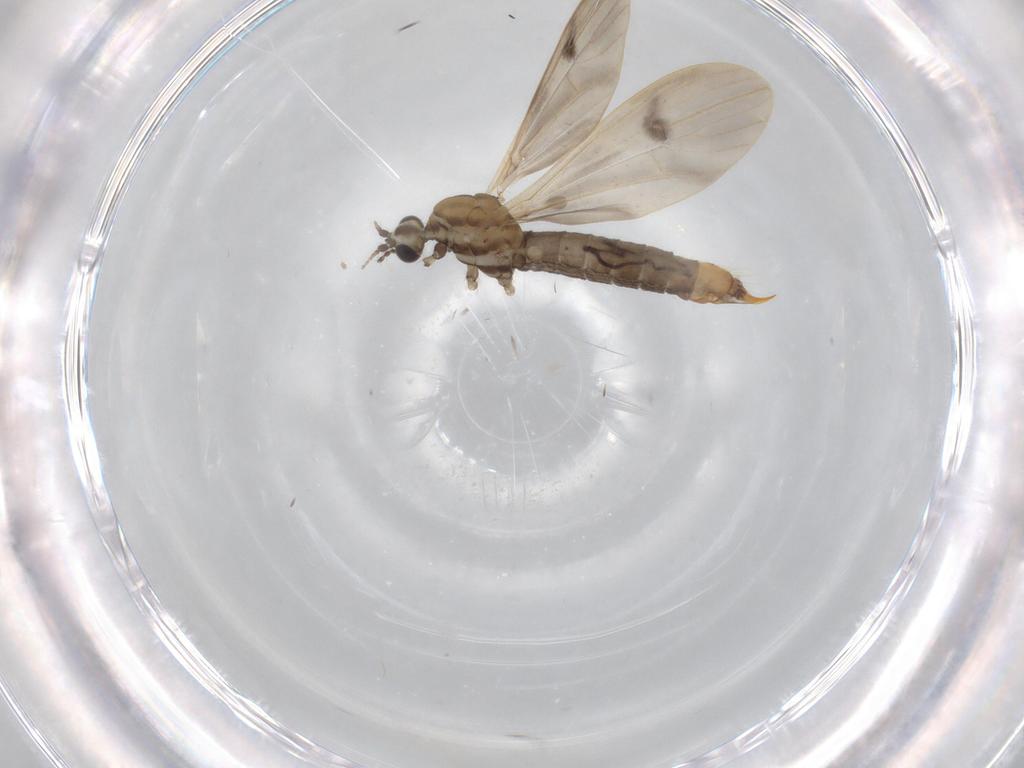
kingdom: Animalia
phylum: Arthropoda
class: Insecta
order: Diptera
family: Limoniidae
